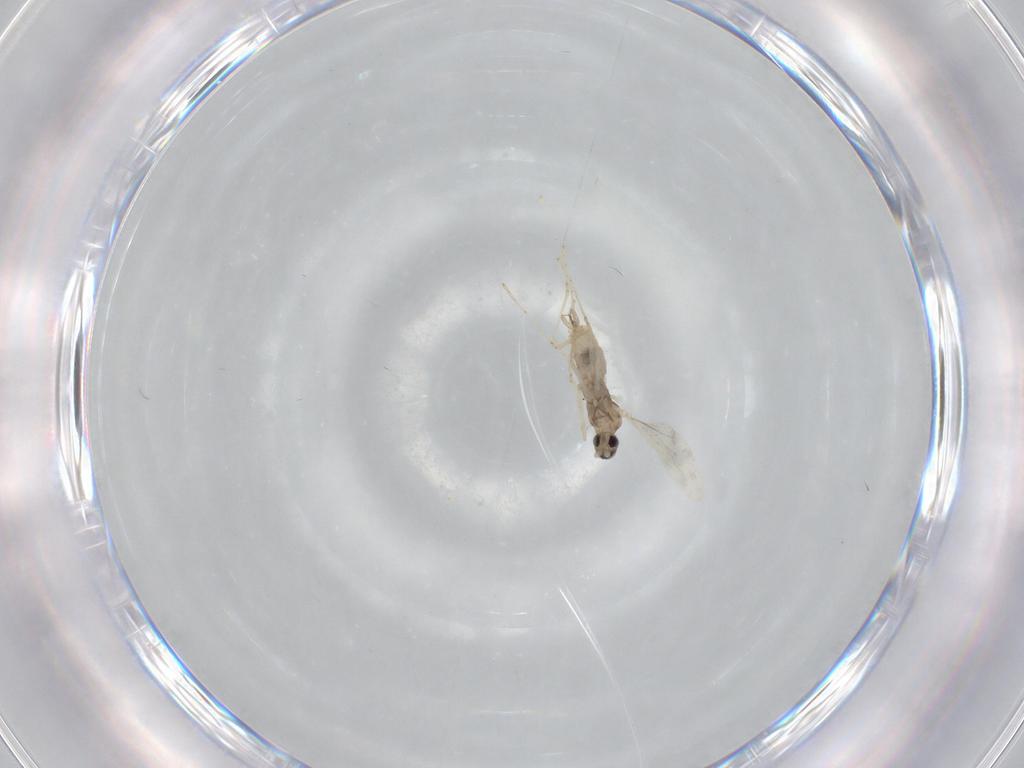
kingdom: Animalia
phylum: Arthropoda
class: Insecta
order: Diptera
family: Cecidomyiidae
